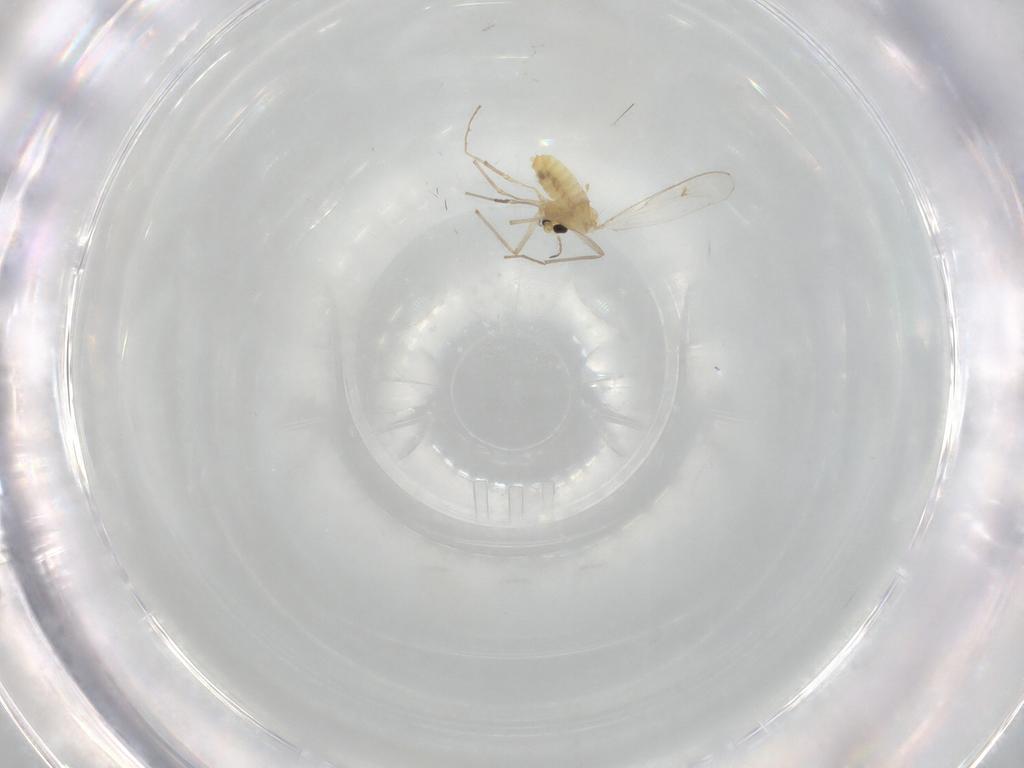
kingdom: Animalia
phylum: Arthropoda
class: Insecta
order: Diptera
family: Chironomidae
